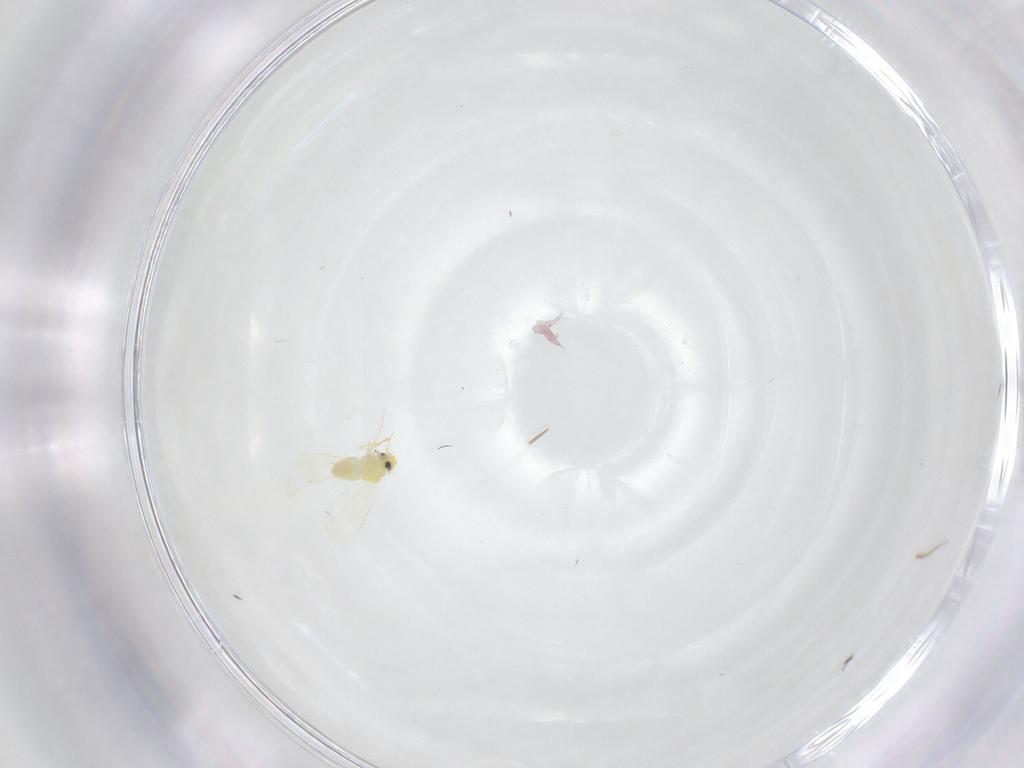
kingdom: Animalia
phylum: Arthropoda
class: Insecta
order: Hemiptera
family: Aleyrodidae
